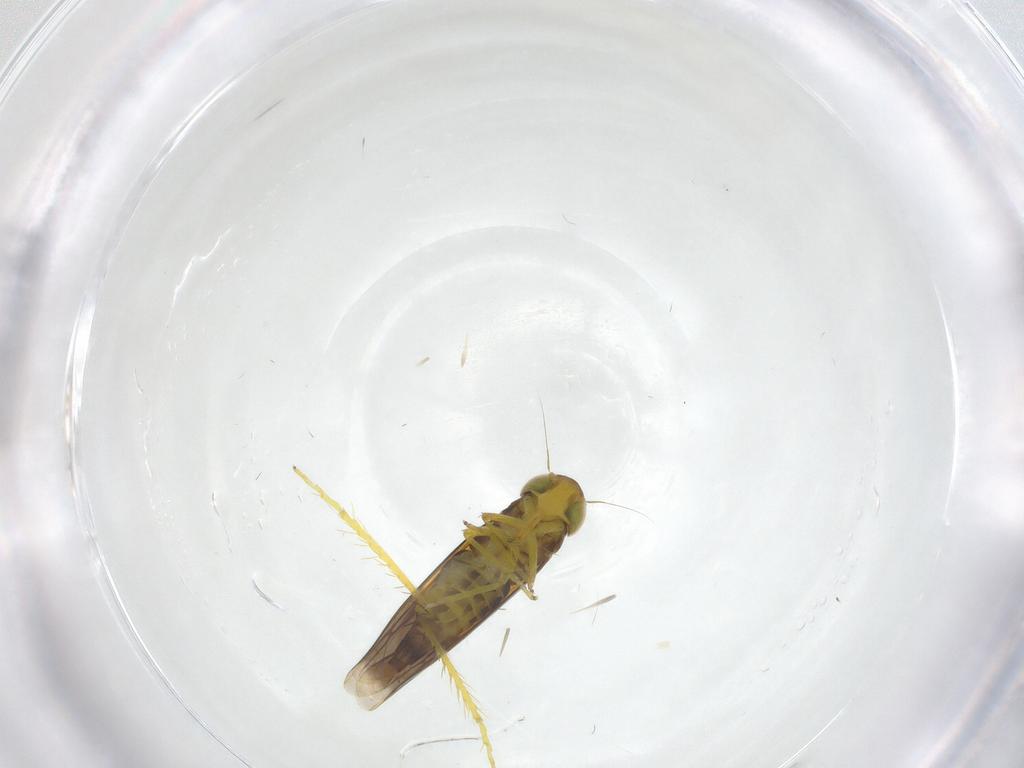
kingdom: Animalia
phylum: Arthropoda
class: Insecta
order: Hemiptera
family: Cicadellidae
